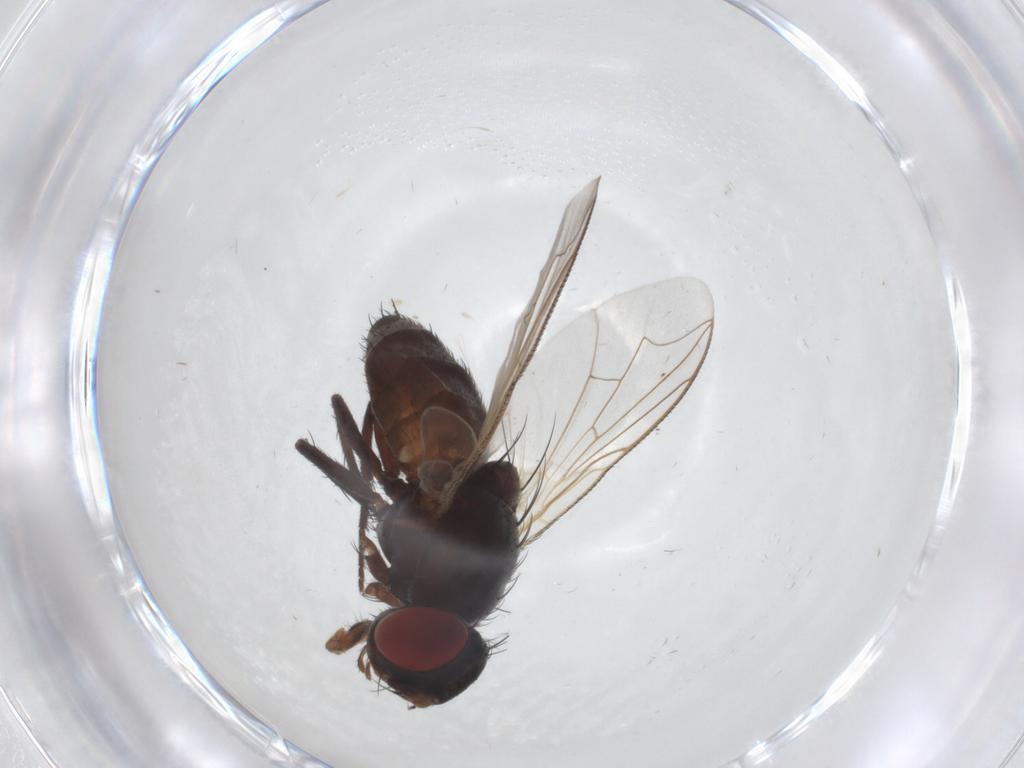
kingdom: Animalia
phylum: Arthropoda
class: Insecta
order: Diptera
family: Sarcophagidae
